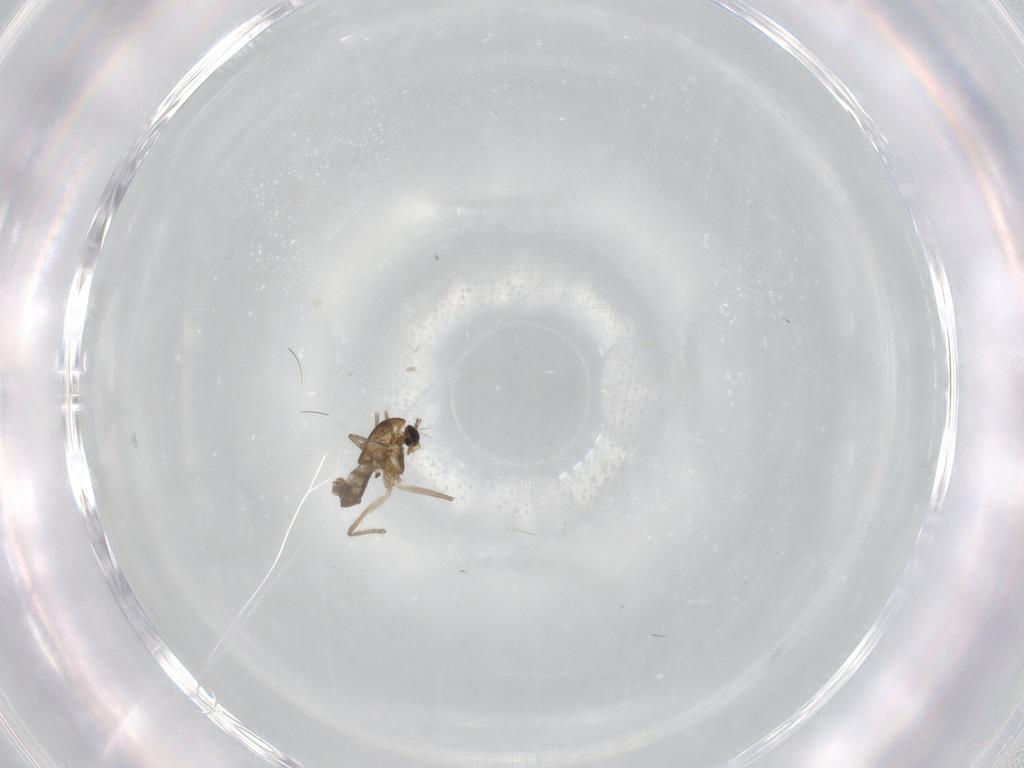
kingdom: Animalia
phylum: Arthropoda
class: Insecta
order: Diptera
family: Chironomidae
